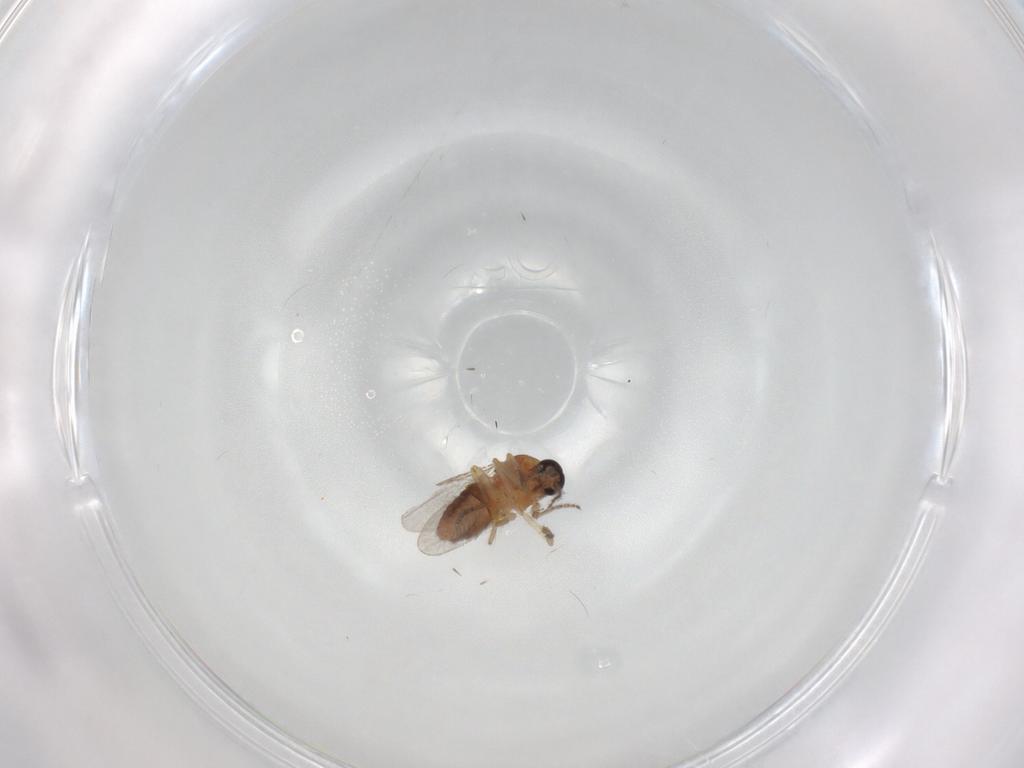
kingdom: Animalia
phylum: Arthropoda
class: Insecta
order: Diptera
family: Ceratopogonidae
